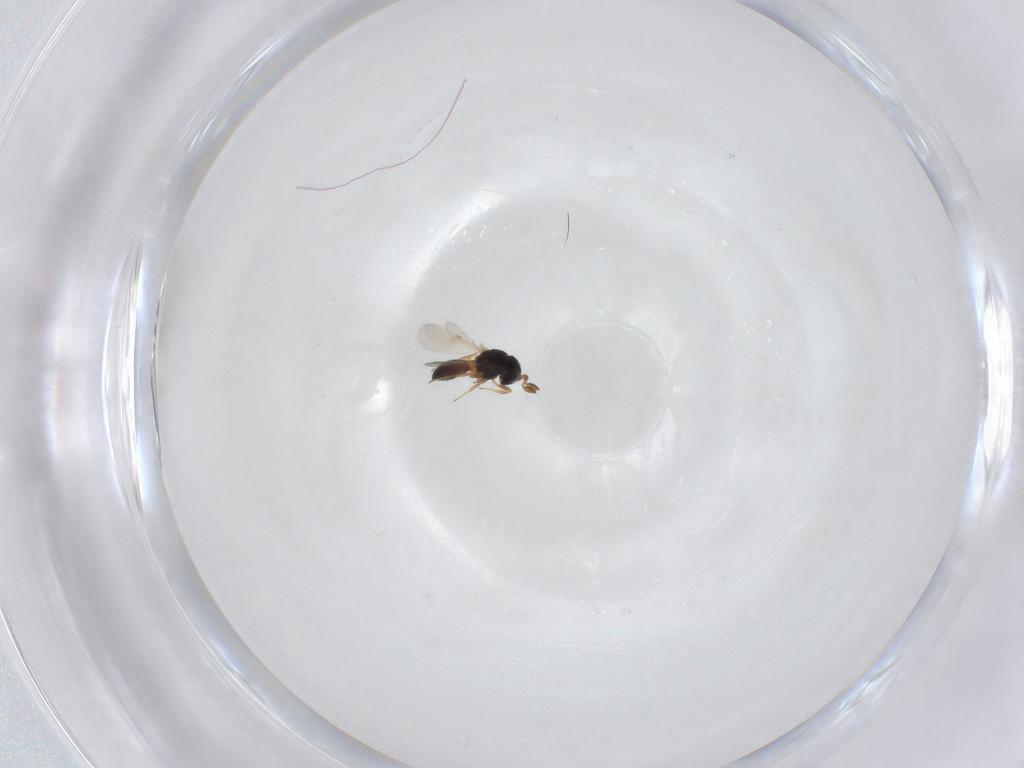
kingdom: Animalia
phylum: Arthropoda
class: Insecta
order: Hymenoptera
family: Scelionidae
